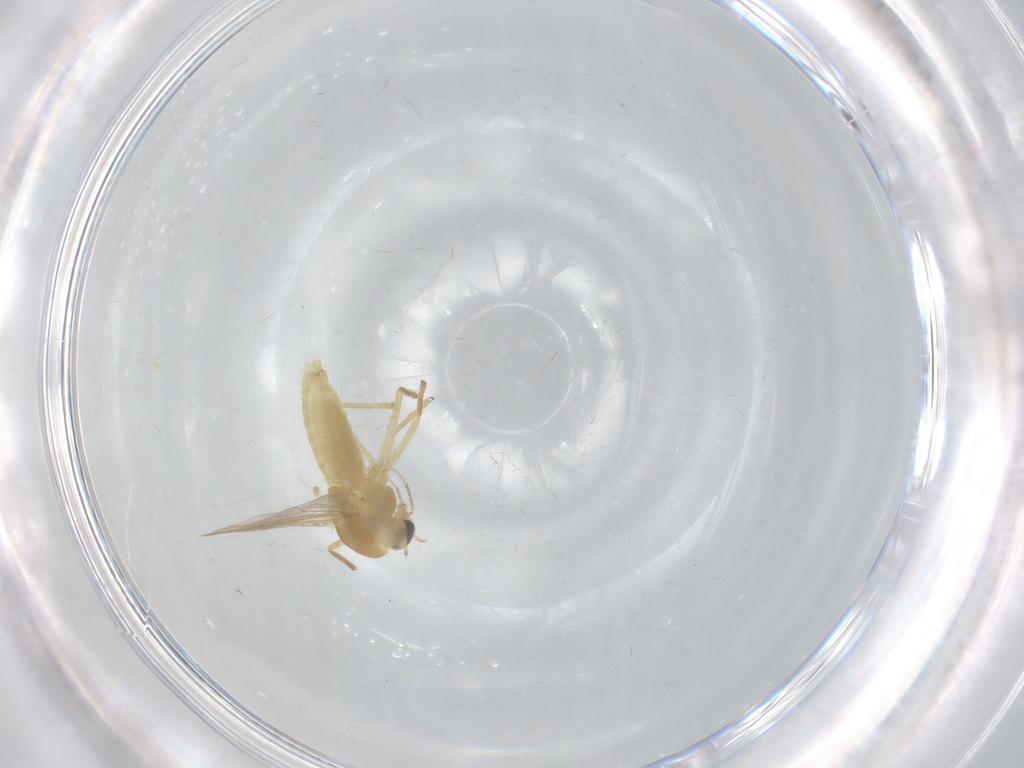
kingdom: Animalia
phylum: Arthropoda
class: Insecta
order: Diptera
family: Chironomidae
